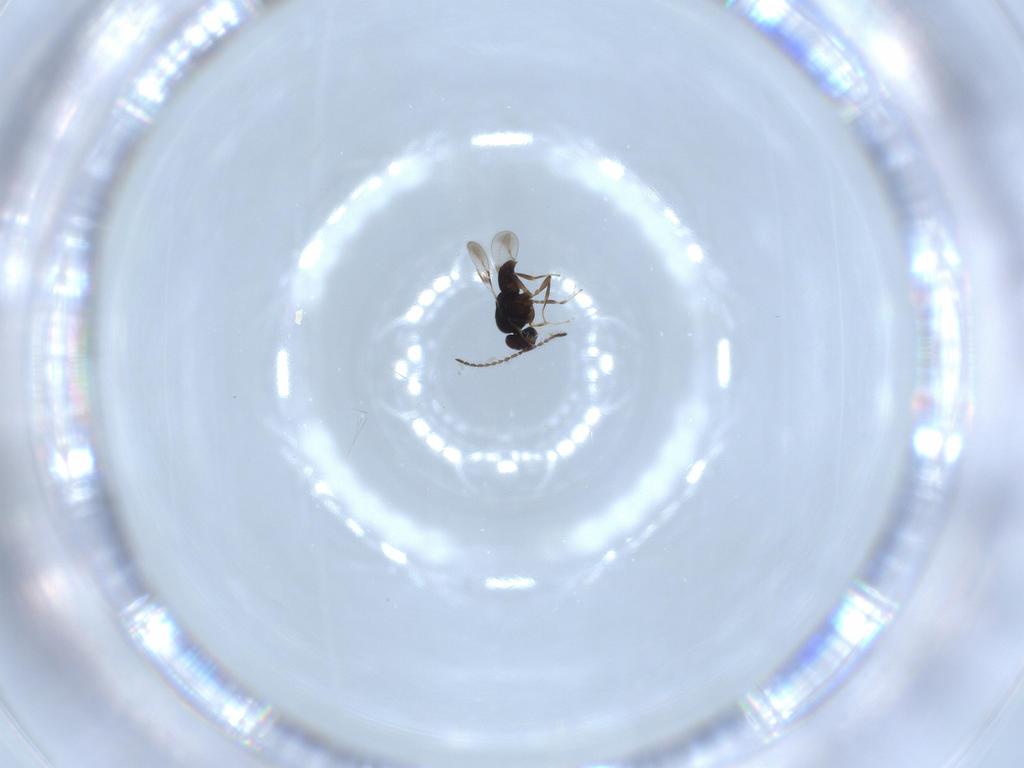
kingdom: Animalia
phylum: Arthropoda
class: Insecta
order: Hymenoptera
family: Ceraphronidae
